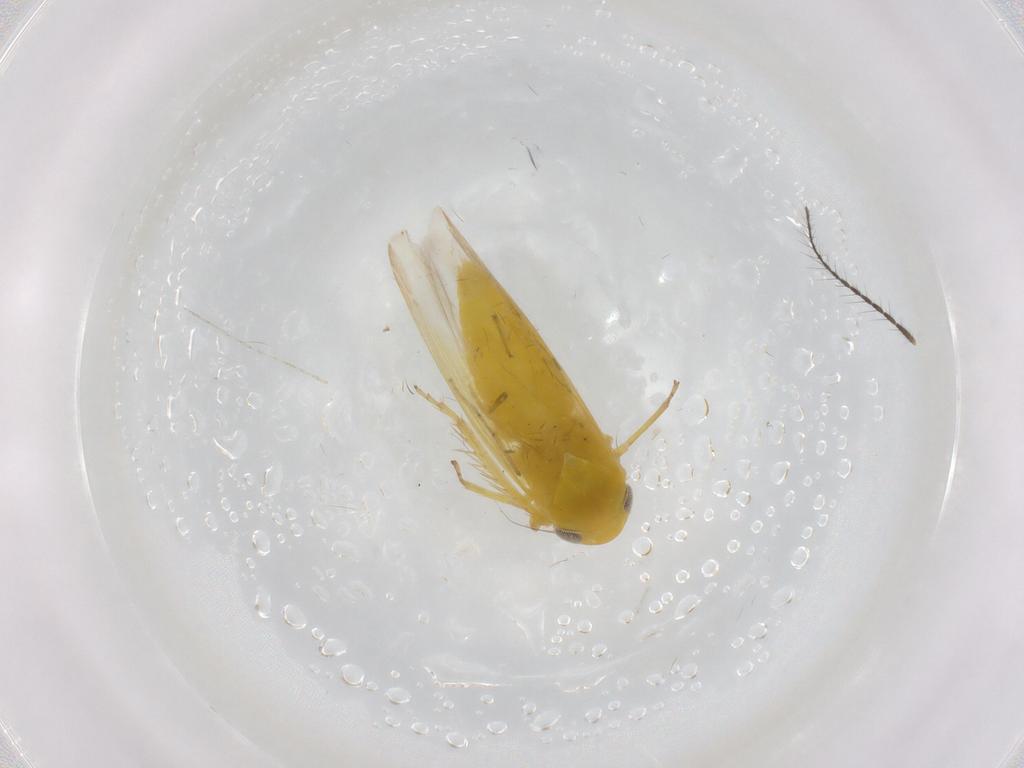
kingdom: Animalia
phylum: Arthropoda
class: Insecta
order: Hemiptera
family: Cicadellidae
